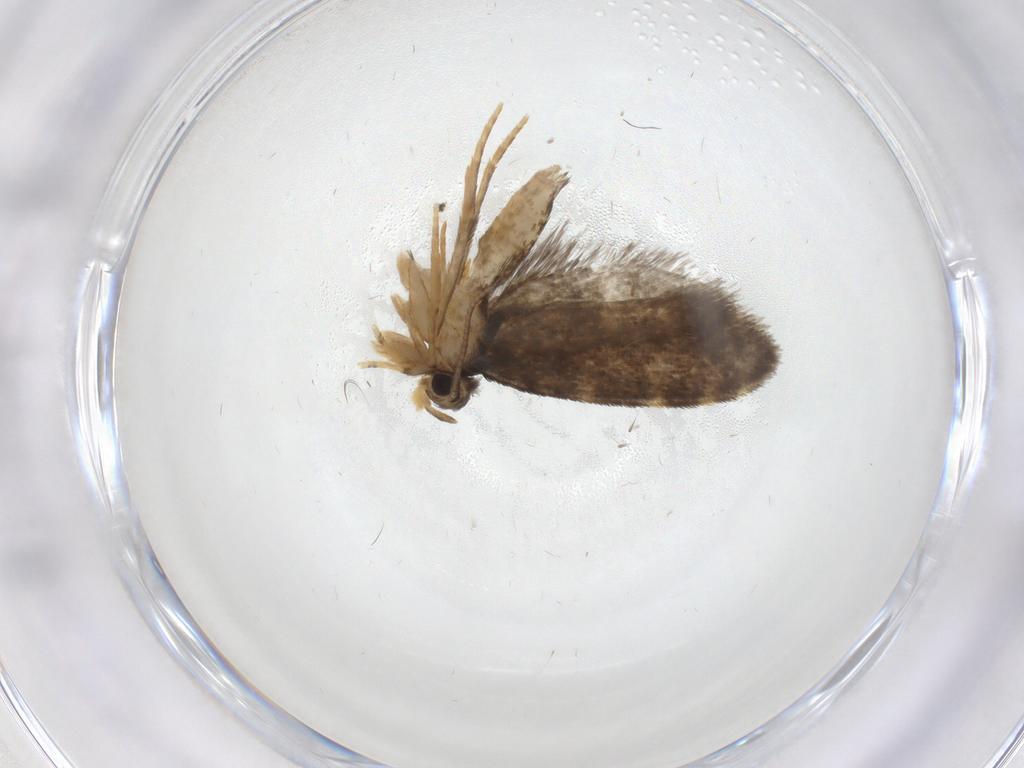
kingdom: Animalia
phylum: Arthropoda
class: Insecta
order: Lepidoptera
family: Psychidae
